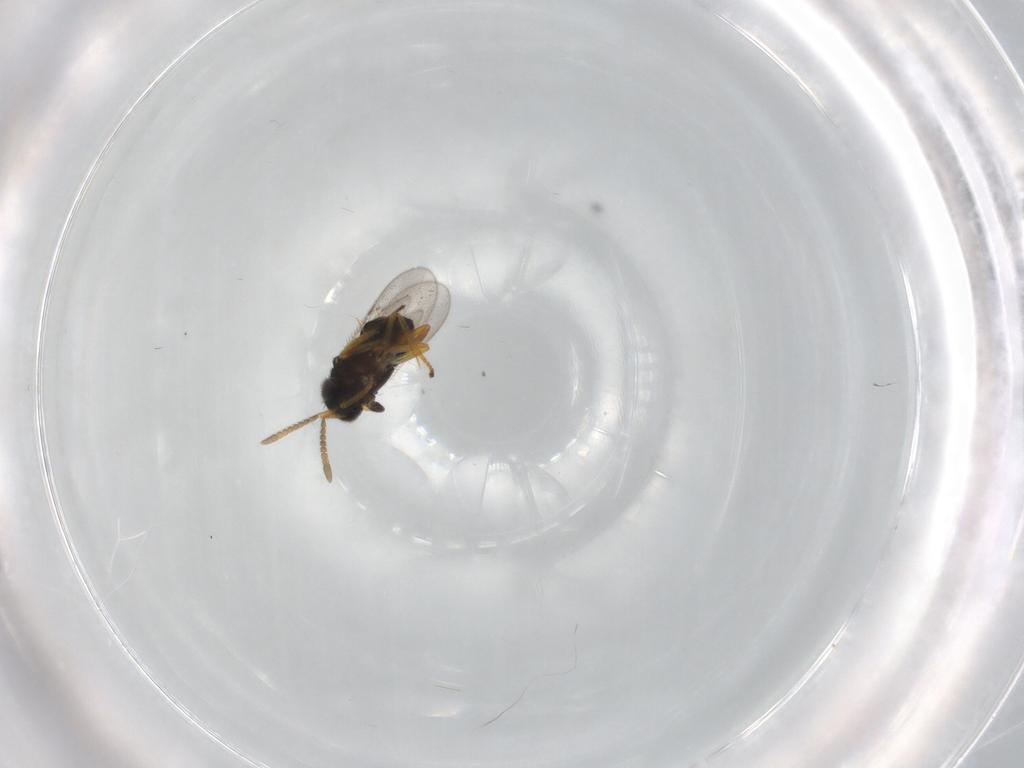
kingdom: Animalia
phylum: Arthropoda
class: Insecta
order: Hymenoptera
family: Encyrtidae
